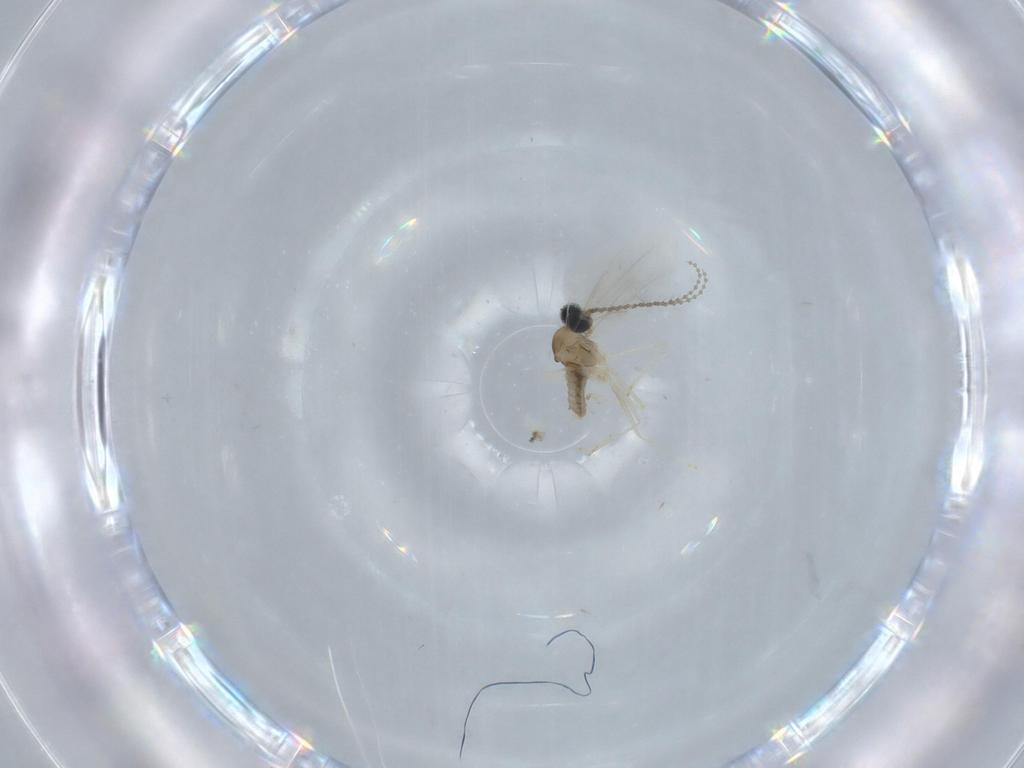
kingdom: Animalia
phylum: Arthropoda
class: Insecta
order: Diptera
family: Cecidomyiidae
